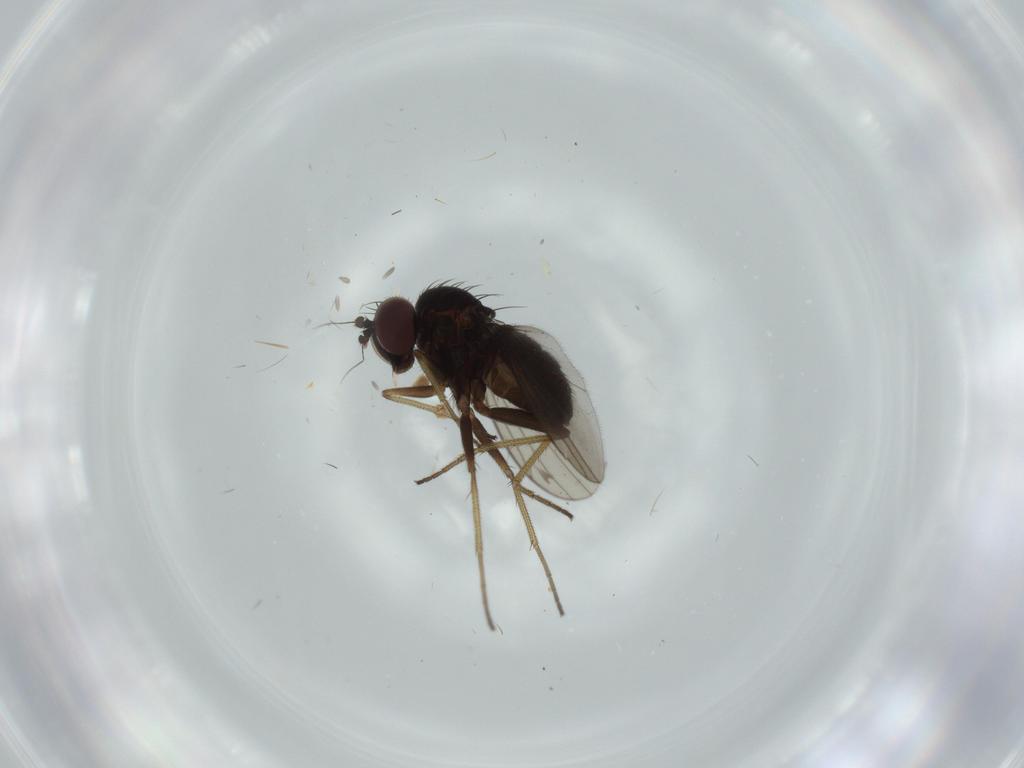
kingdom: Animalia
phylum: Arthropoda
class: Insecta
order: Diptera
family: Dolichopodidae
